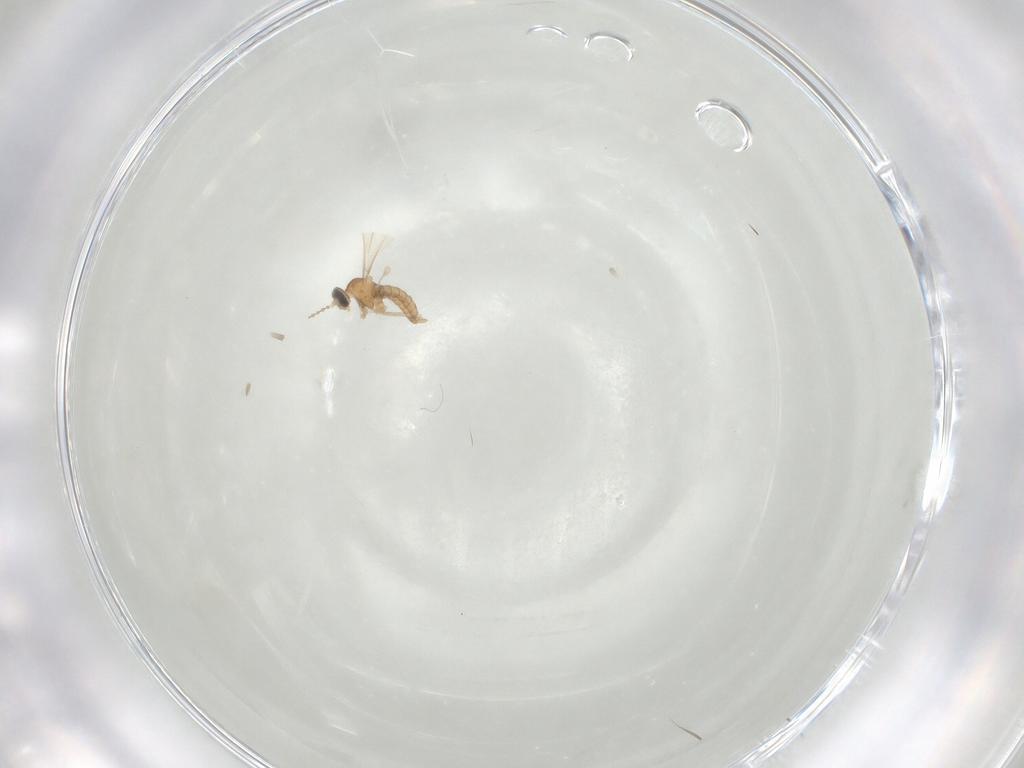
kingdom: Animalia
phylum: Arthropoda
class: Insecta
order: Diptera
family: Cecidomyiidae
